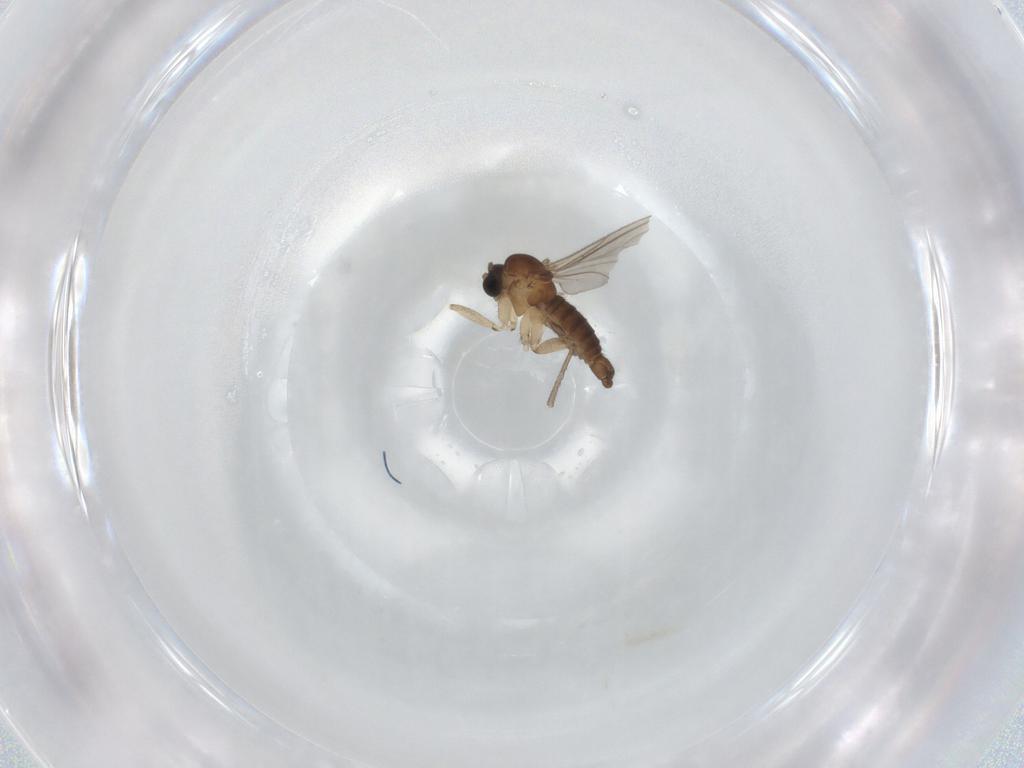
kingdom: Animalia
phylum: Arthropoda
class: Insecta
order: Diptera
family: Sciaridae
